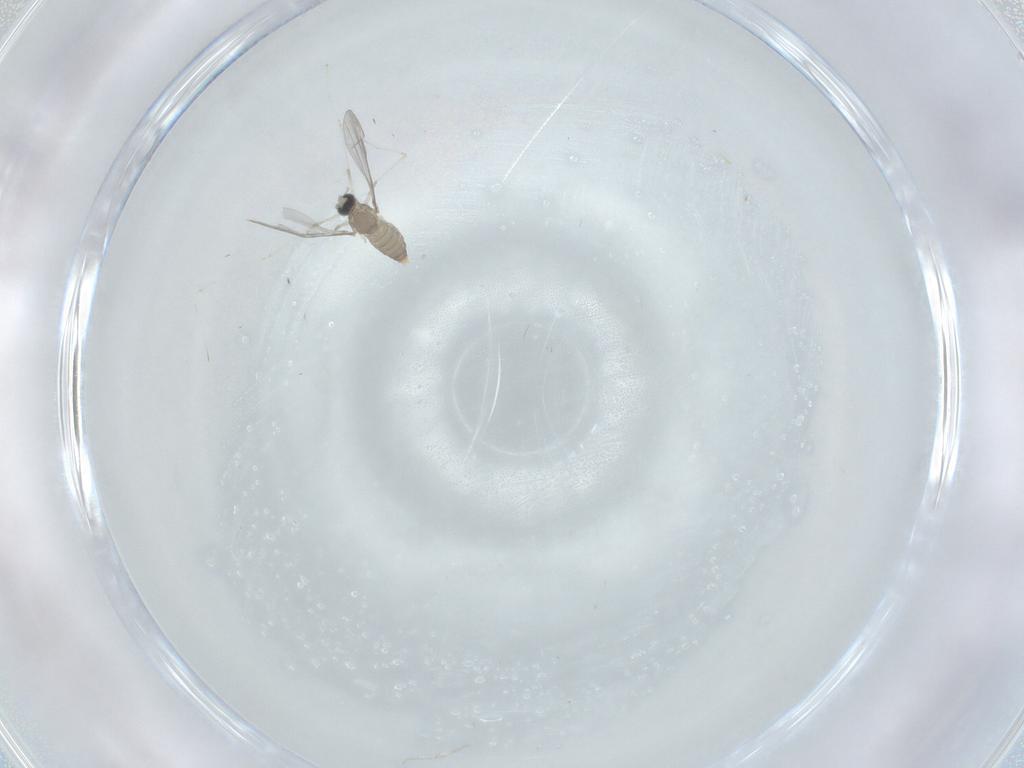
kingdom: Animalia
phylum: Arthropoda
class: Insecta
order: Diptera
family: Cecidomyiidae
